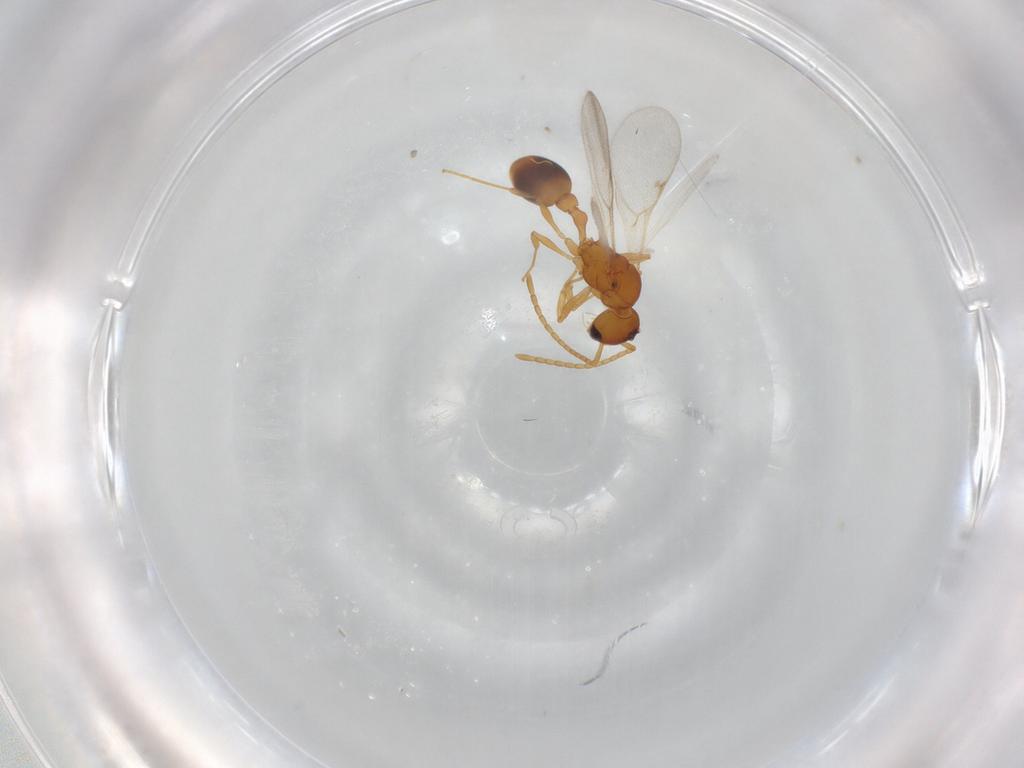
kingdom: Animalia
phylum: Arthropoda
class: Insecta
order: Hymenoptera
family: Formicidae
